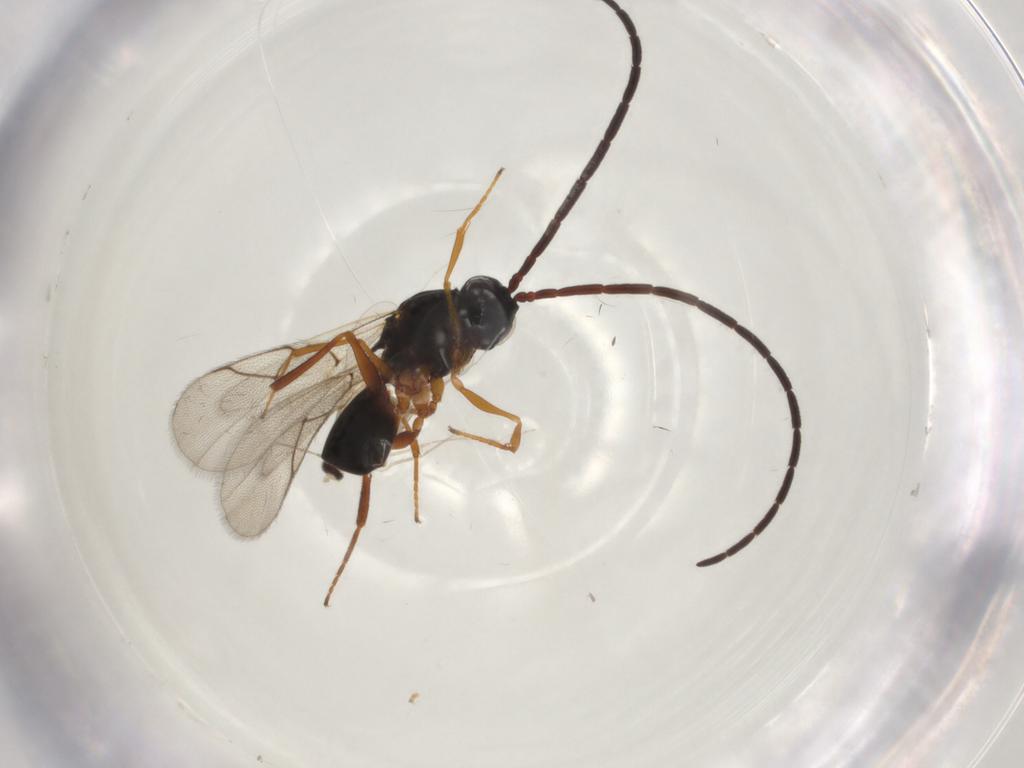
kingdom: Animalia
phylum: Arthropoda
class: Insecta
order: Hymenoptera
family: Figitidae
